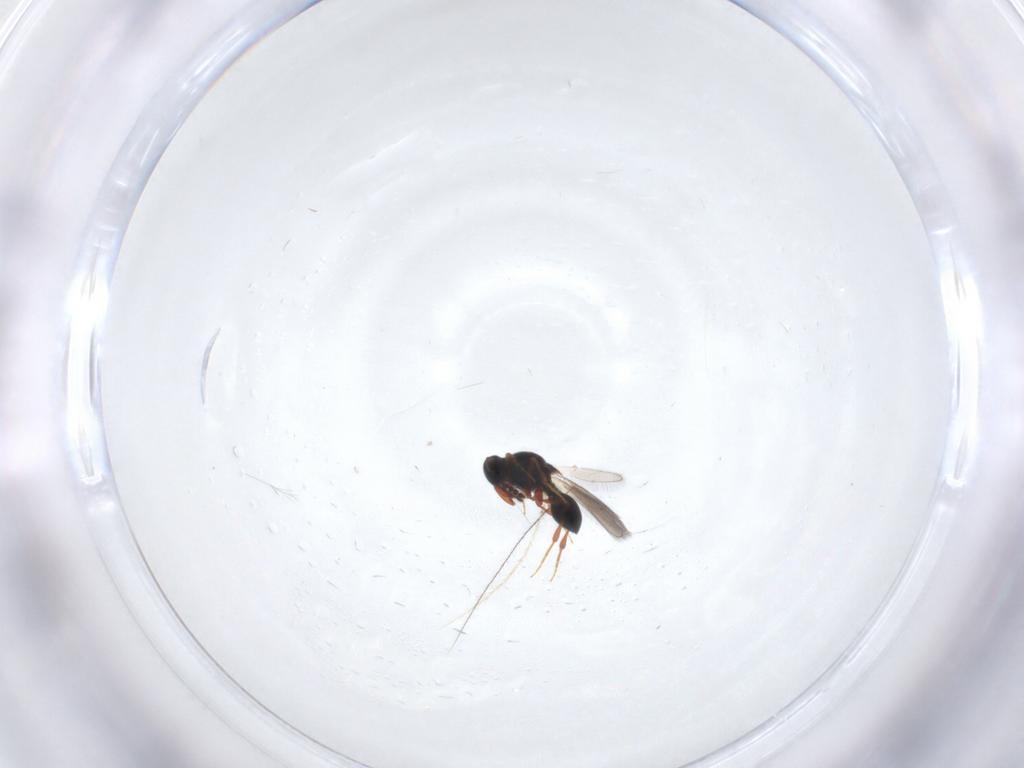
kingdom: Animalia
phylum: Arthropoda
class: Insecta
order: Hymenoptera
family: Platygastridae
